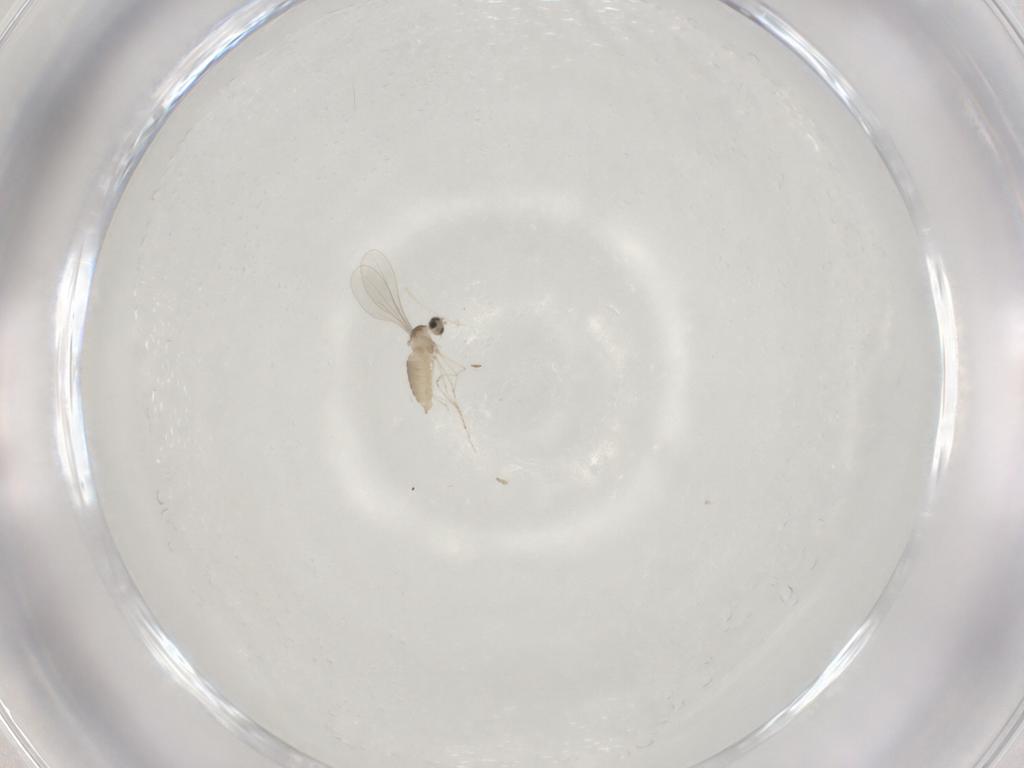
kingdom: Animalia
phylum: Arthropoda
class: Insecta
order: Diptera
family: Cecidomyiidae
